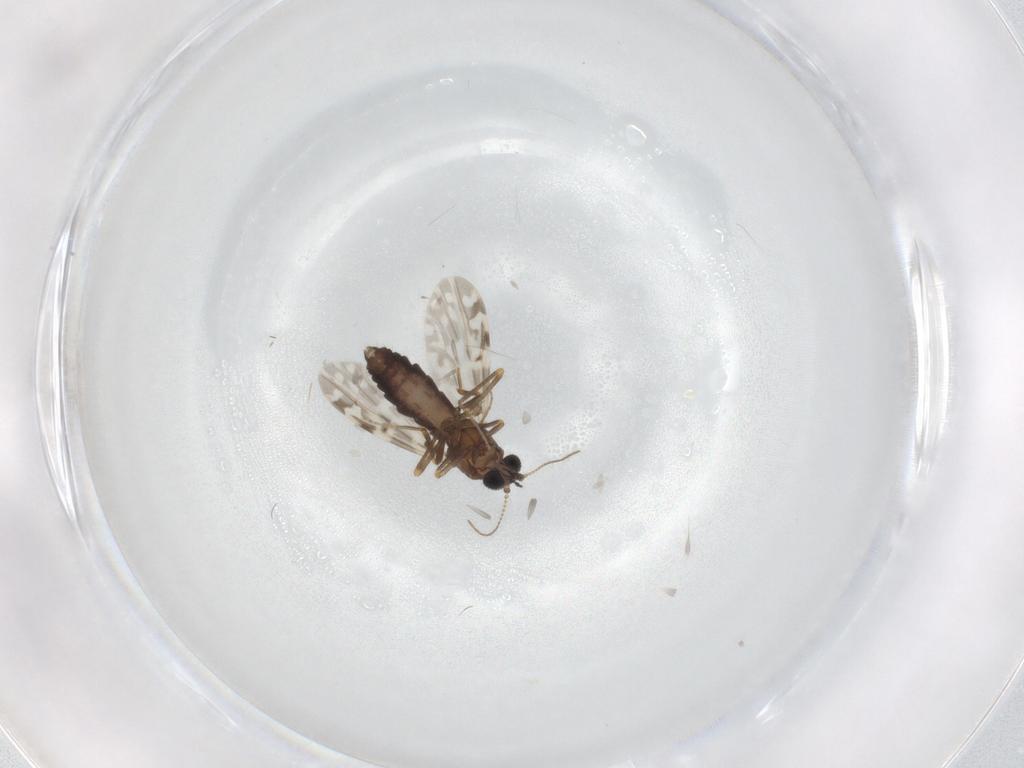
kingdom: Animalia
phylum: Arthropoda
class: Insecta
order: Diptera
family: Ceratopogonidae
